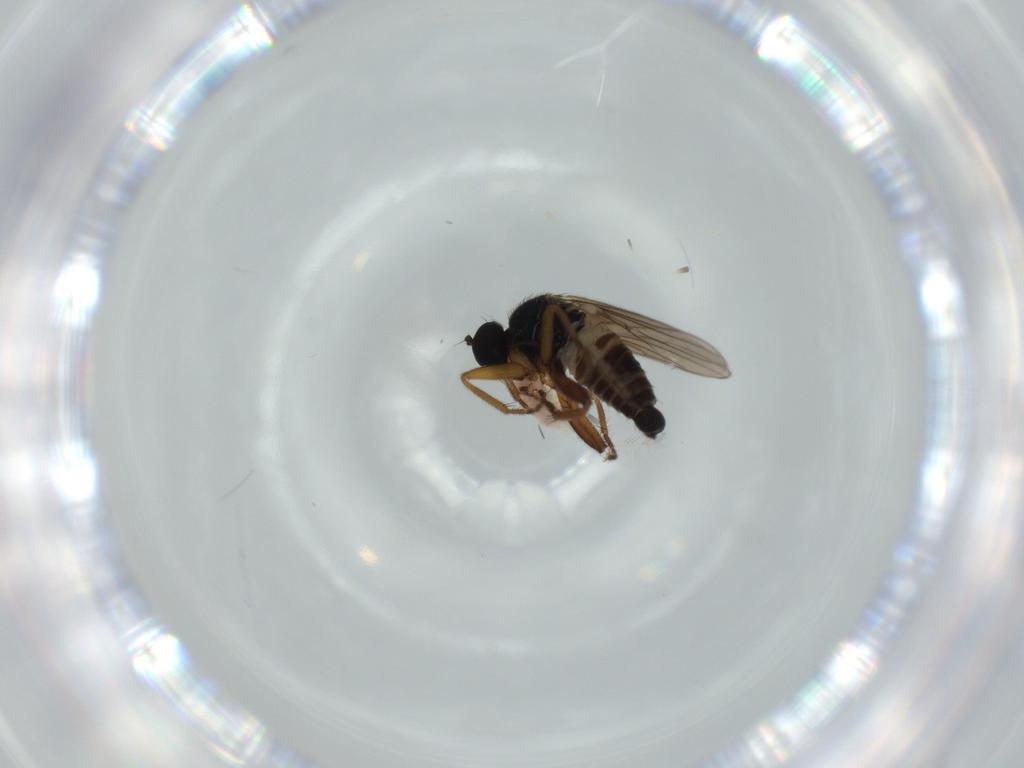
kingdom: Animalia
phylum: Arthropoda
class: Insecta
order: Diptera
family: Hybotidae
